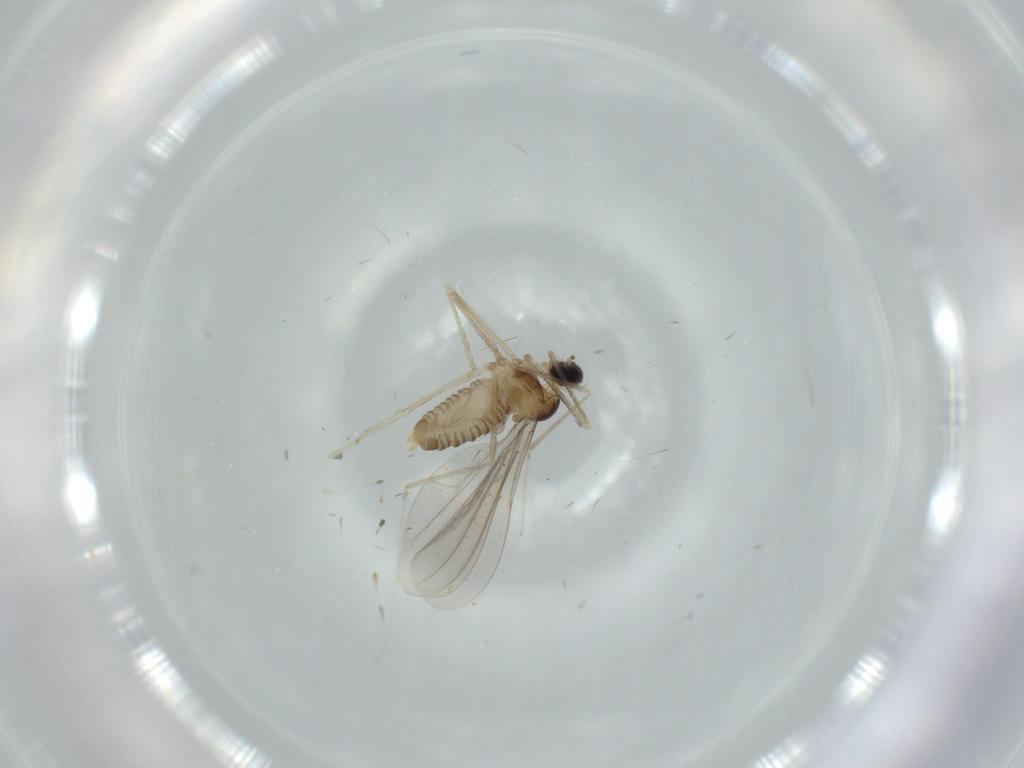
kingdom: Animalia
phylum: Arthropoda
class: Insecta
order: Diptera
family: Cecidomyiidae
